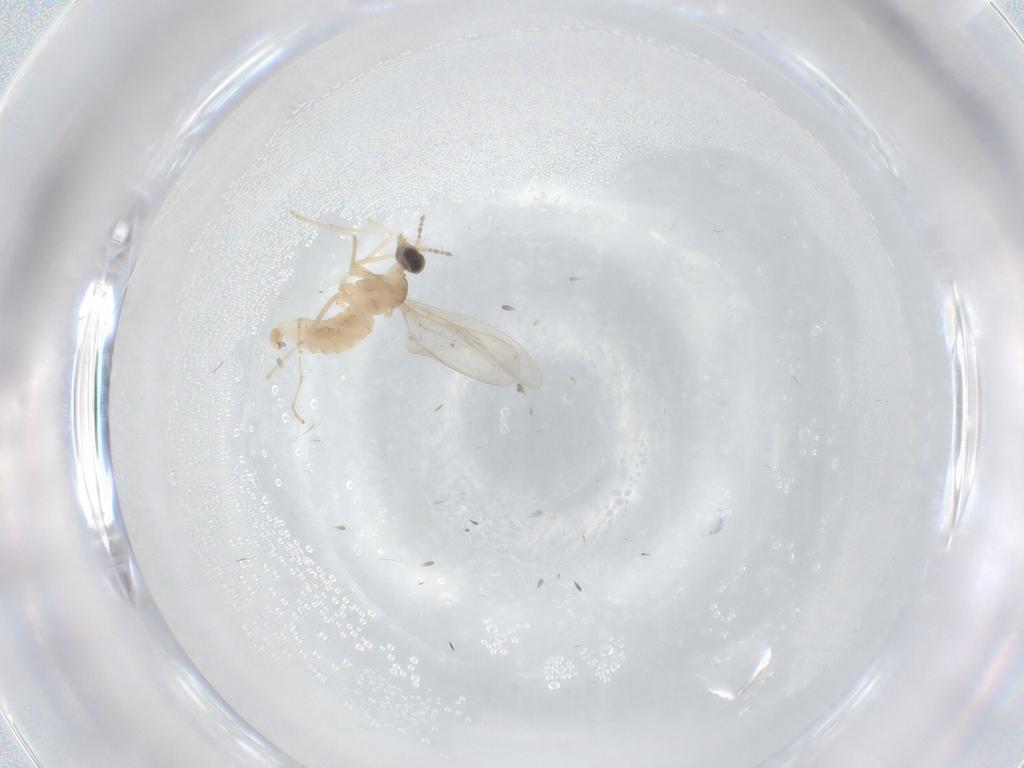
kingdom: Animalia
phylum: Arthropoda
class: Insecta
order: Diptera
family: Cecidomyiidae
